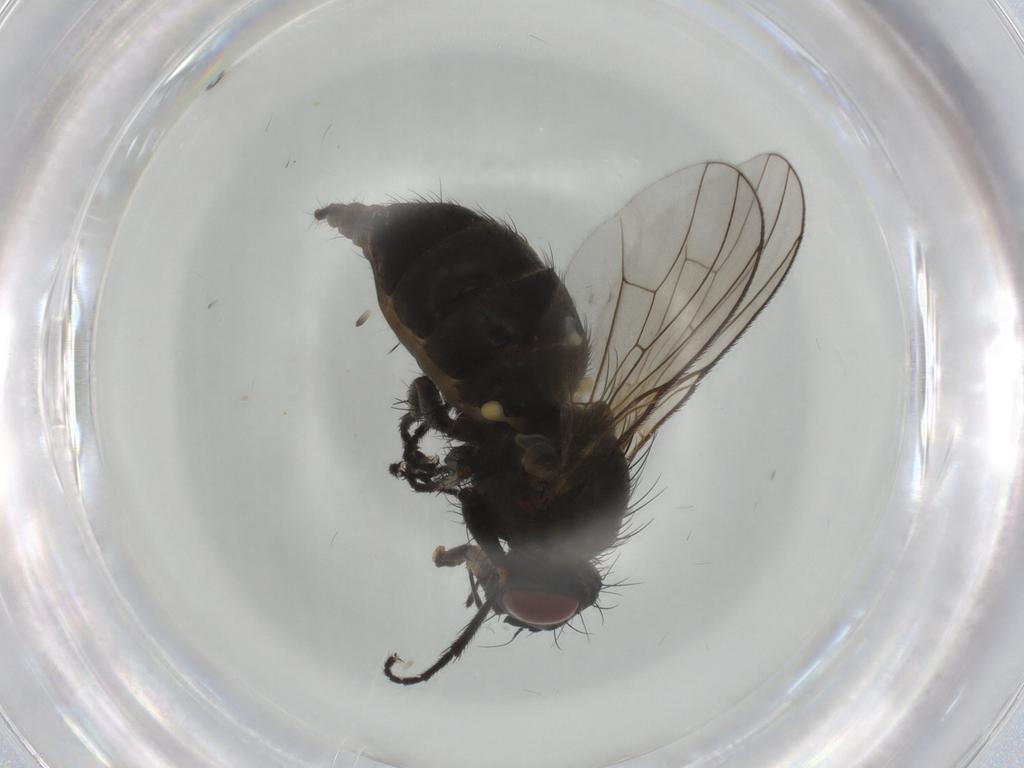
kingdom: Animalia
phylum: Arthropoda
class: Insecta
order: Diptera
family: Muscidae
